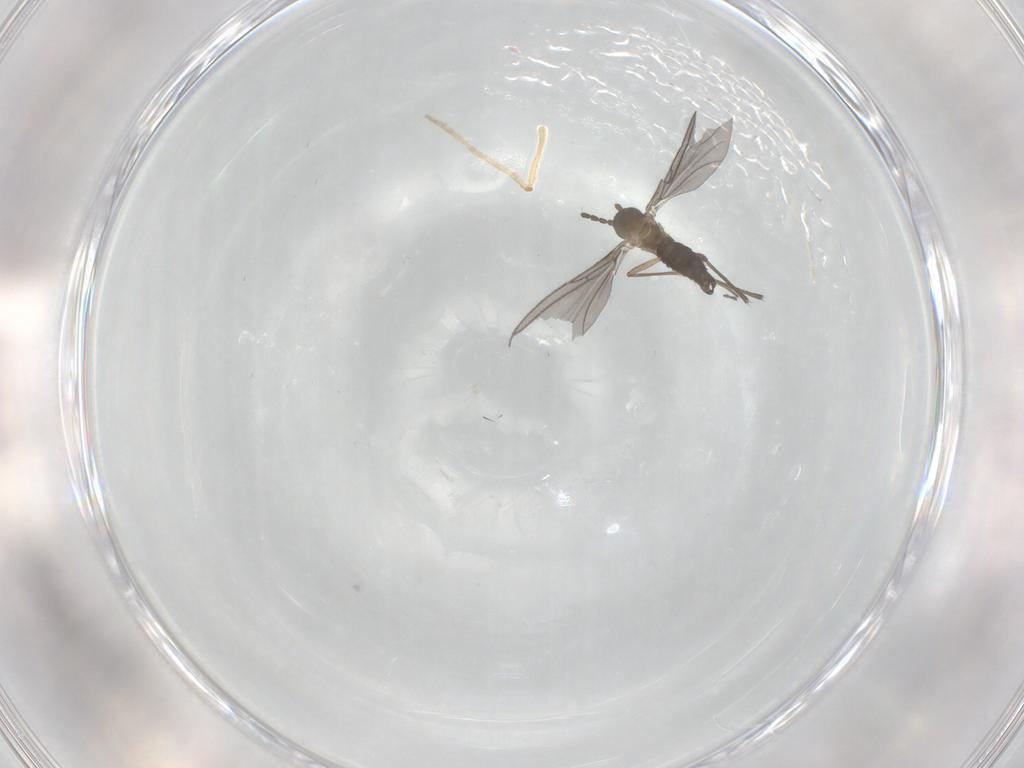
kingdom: Animalia
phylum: Arthropoda
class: Insecta
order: Diptera
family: Sciaridae
